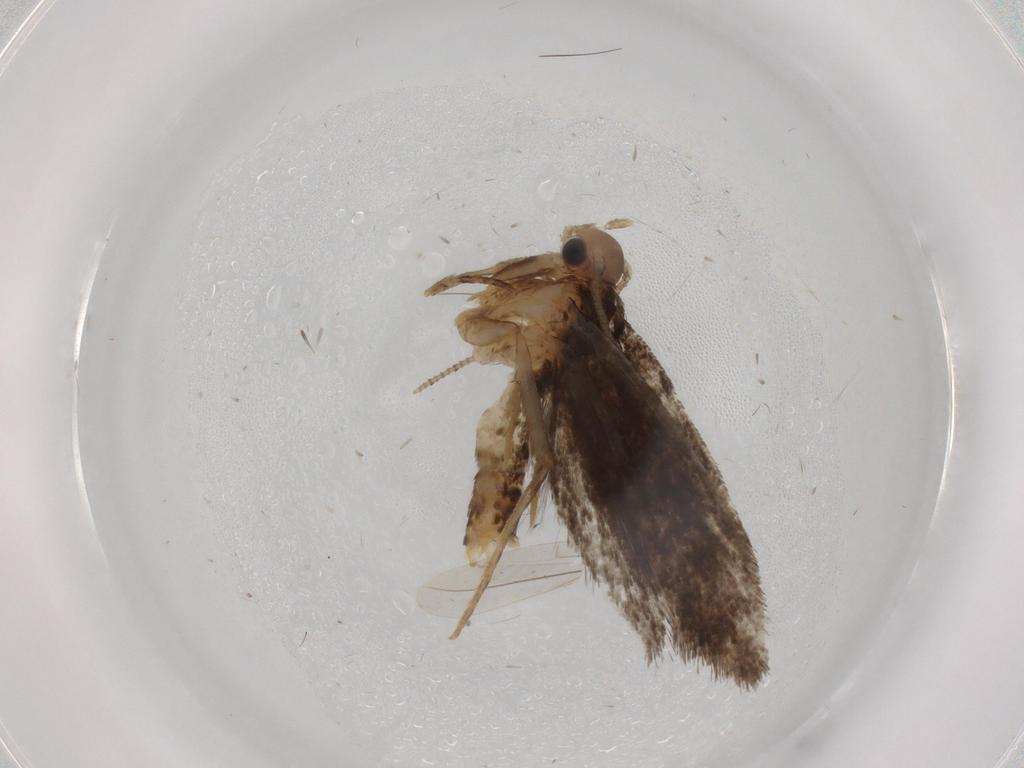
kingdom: Animalia
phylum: Arthropoda
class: Insecta
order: Lepidoptera
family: Tineidae
